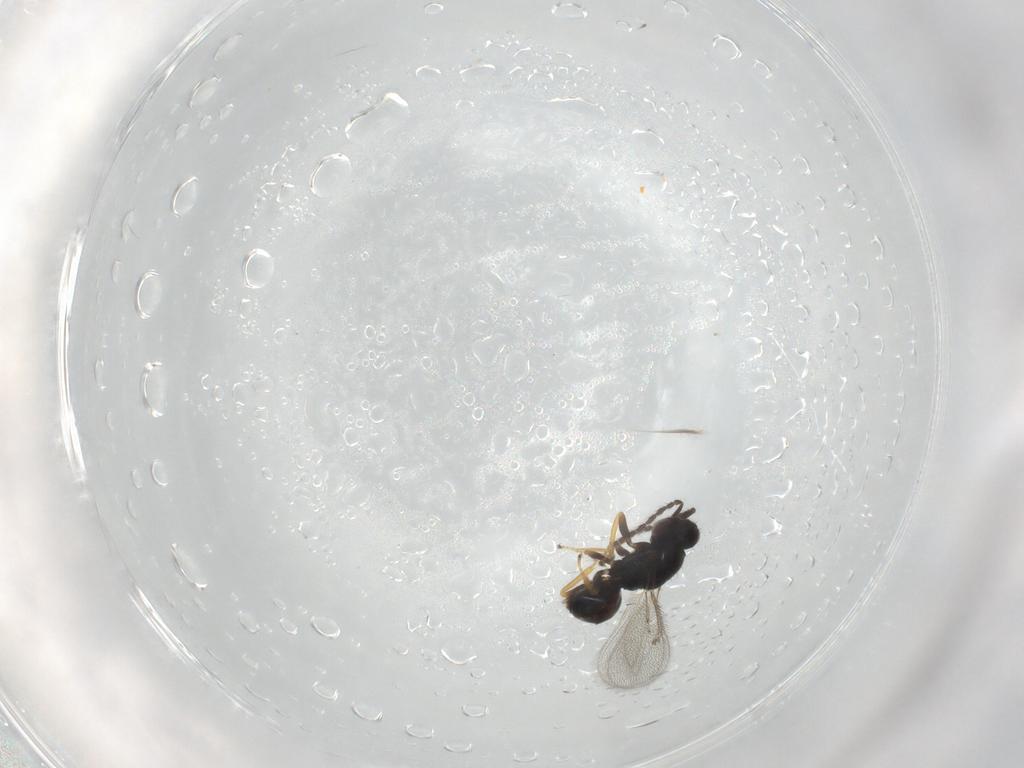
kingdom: Animalia
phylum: Arthropoda
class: Insecta
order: Hymenoptera
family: Eulophidae
